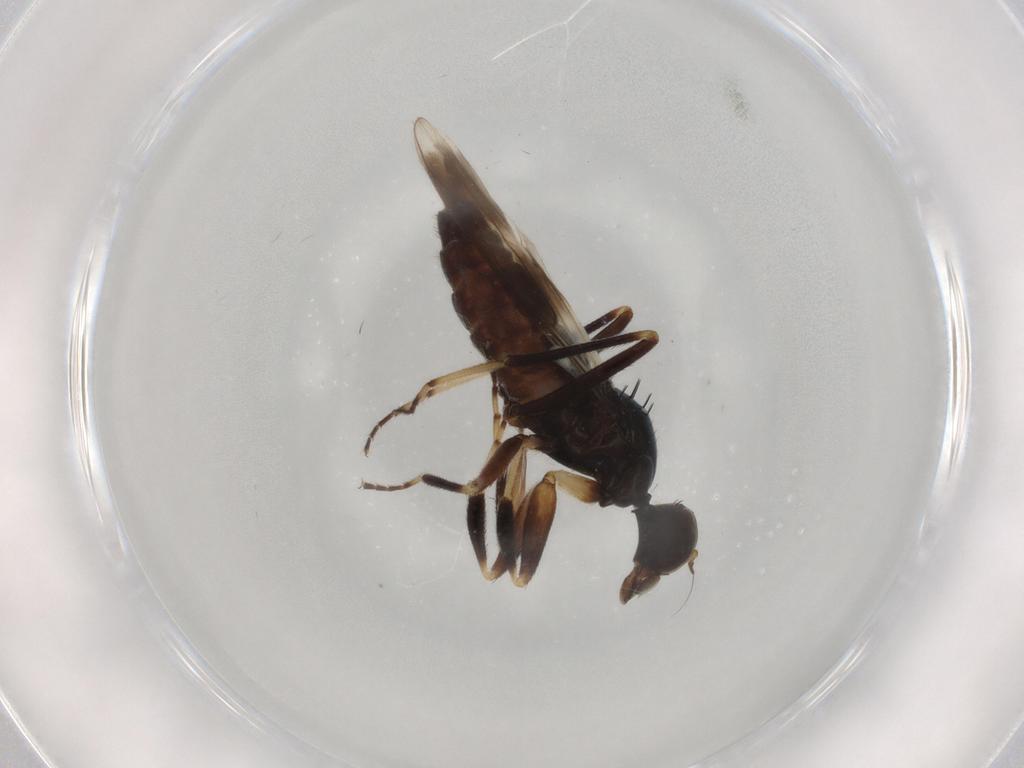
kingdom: Animalia
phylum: Arthropoda
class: Insecta
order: Diptera
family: Hybotidae
